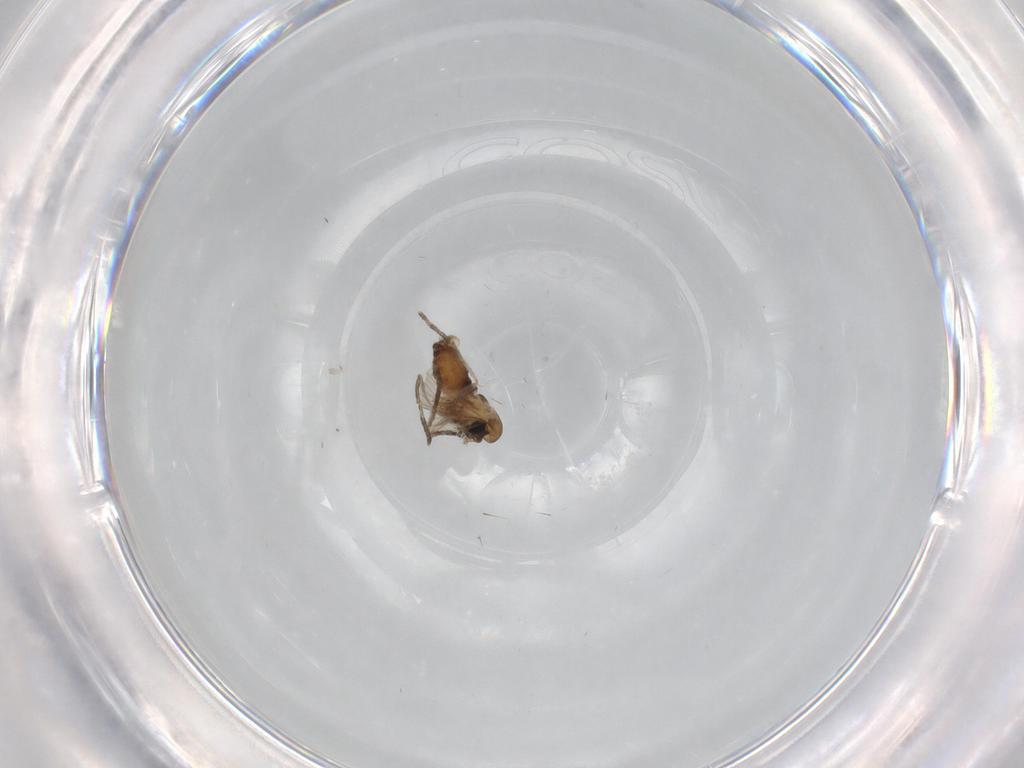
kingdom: Animalia
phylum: Arthropoda
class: Insecta
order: Diptera
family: Psychodidae
